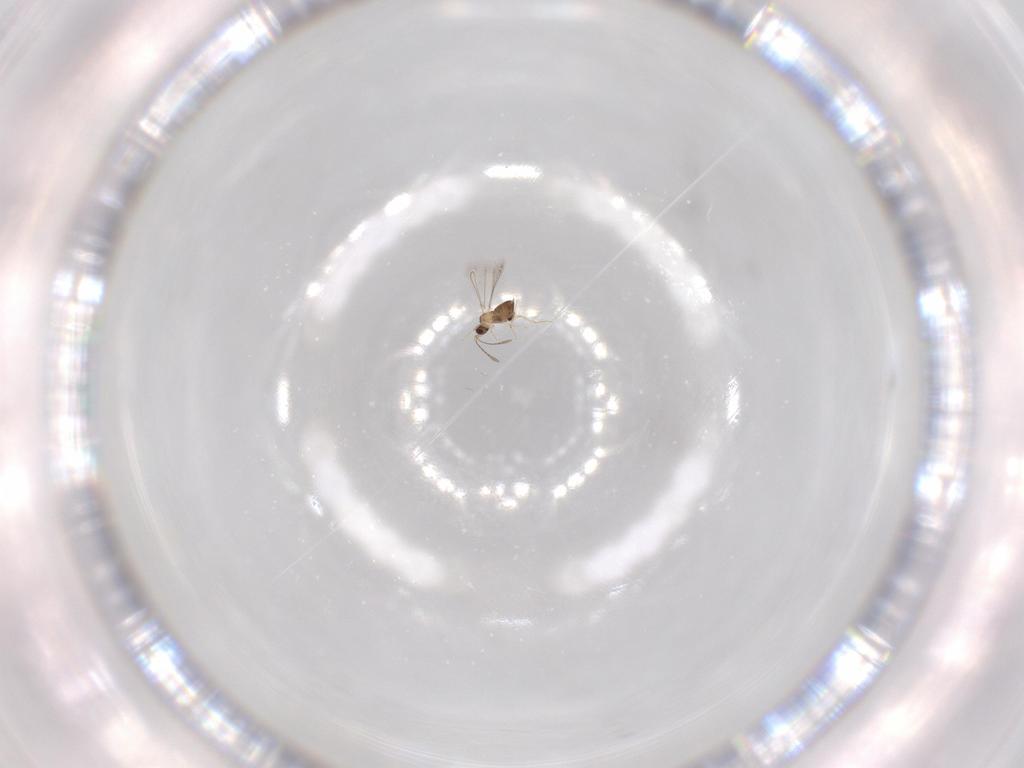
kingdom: Animalia
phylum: Arthropoda
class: Insecta
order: Hymenoptera
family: Mymaridae
